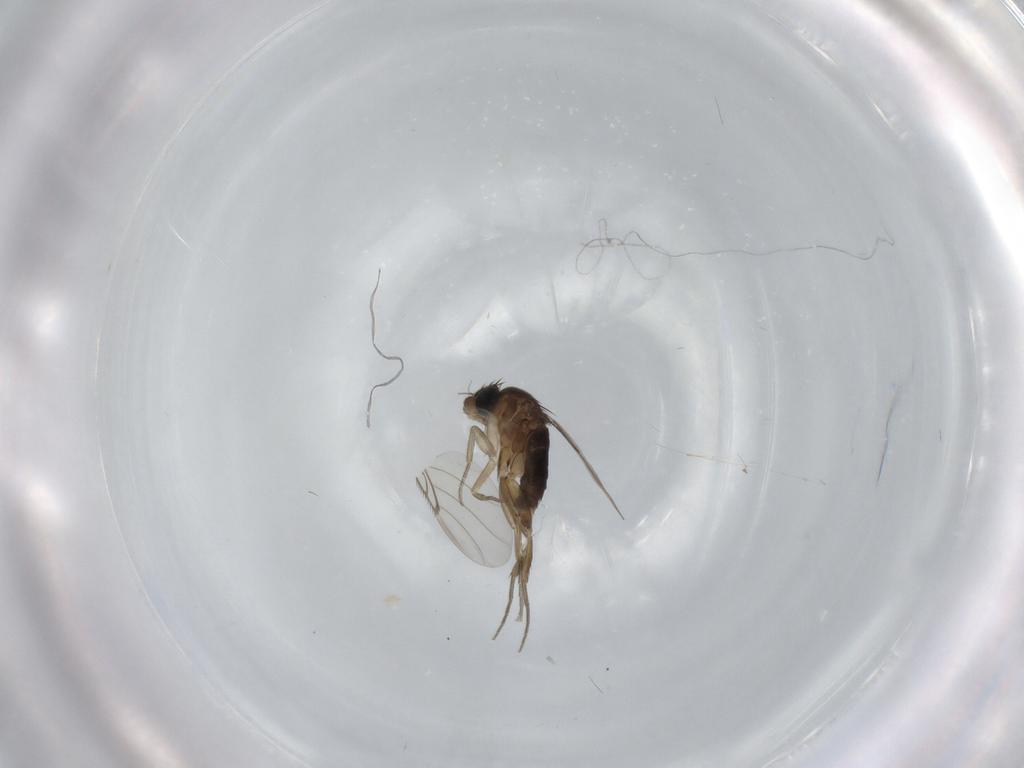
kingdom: Animalia
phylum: Arthropoda
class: Insecta
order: Diptera
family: Phoridae
